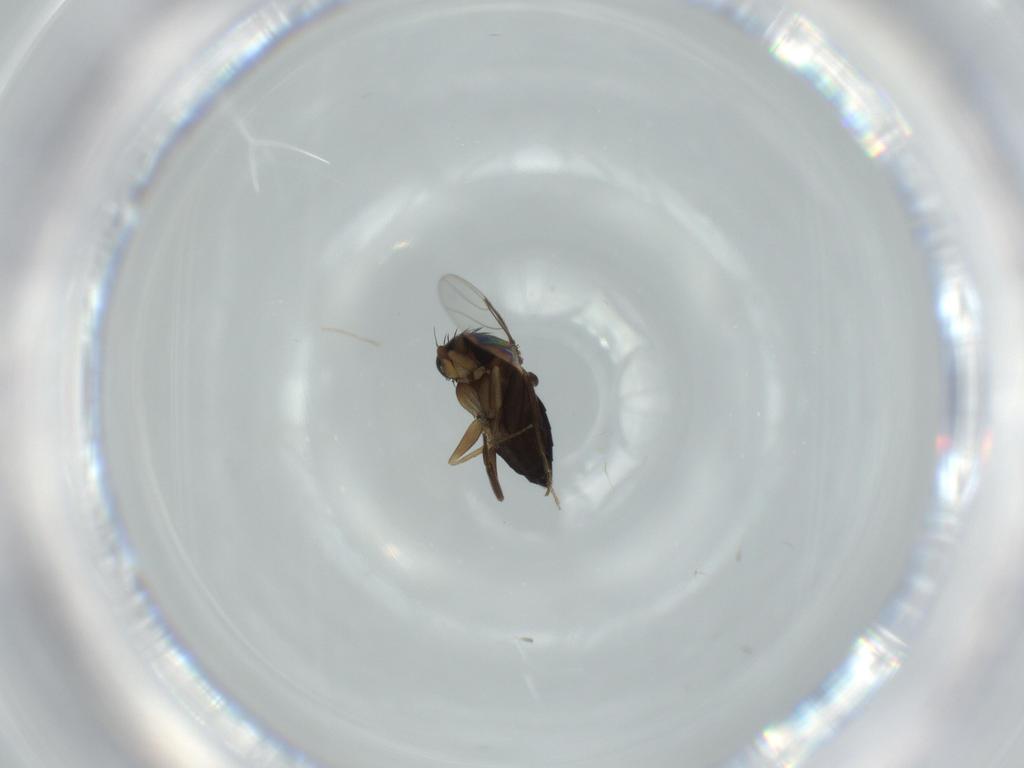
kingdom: Animalia
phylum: Arthropoda
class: Insecta
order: Diptera
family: Phoridae
